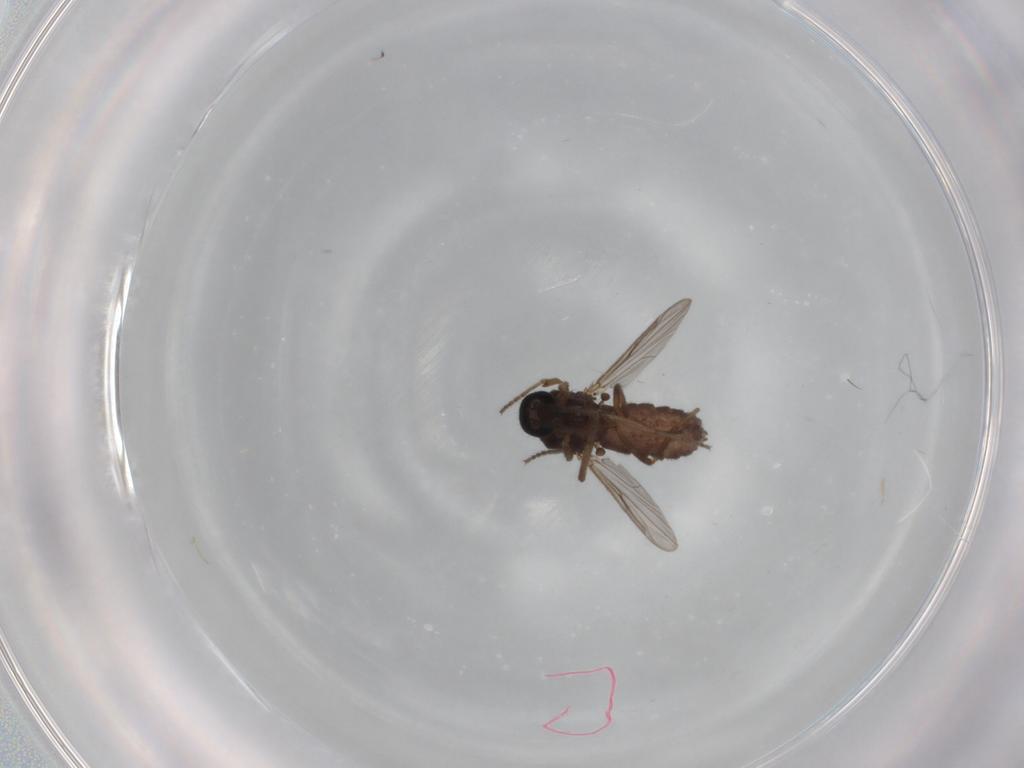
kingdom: Animalia
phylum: Arthropoda
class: Insecta
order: Diptera
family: Ceratopogonidae
